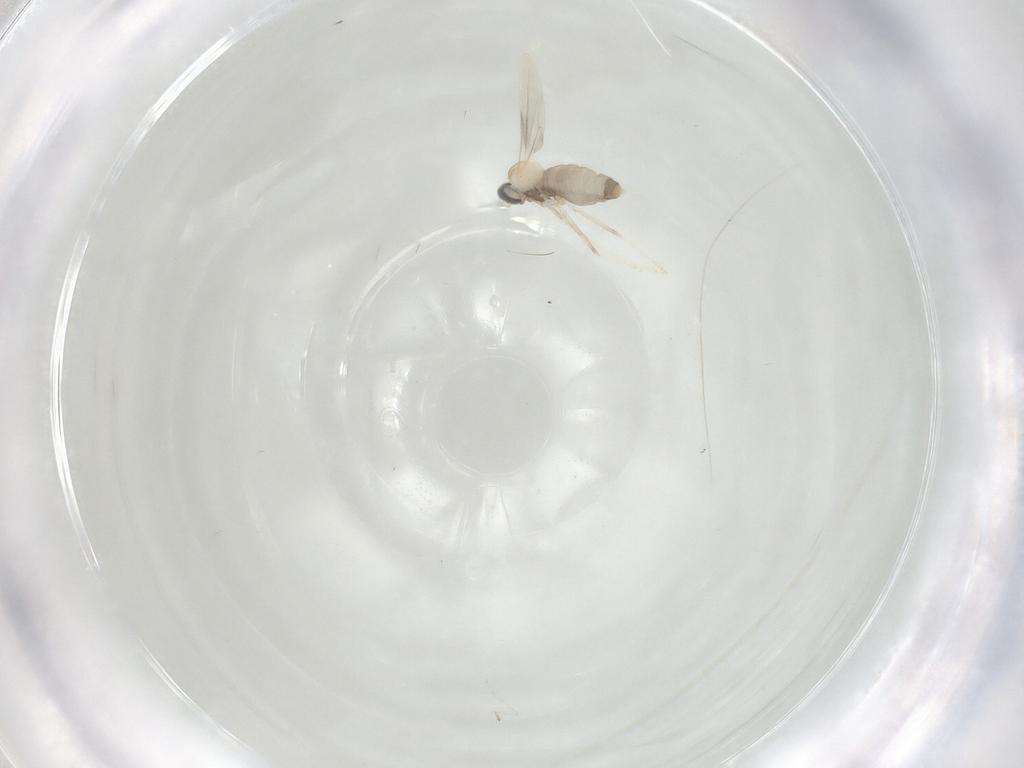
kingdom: Animalia
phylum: Arthropoda
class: Insecta
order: Diptera
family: Ceratopogonidae
